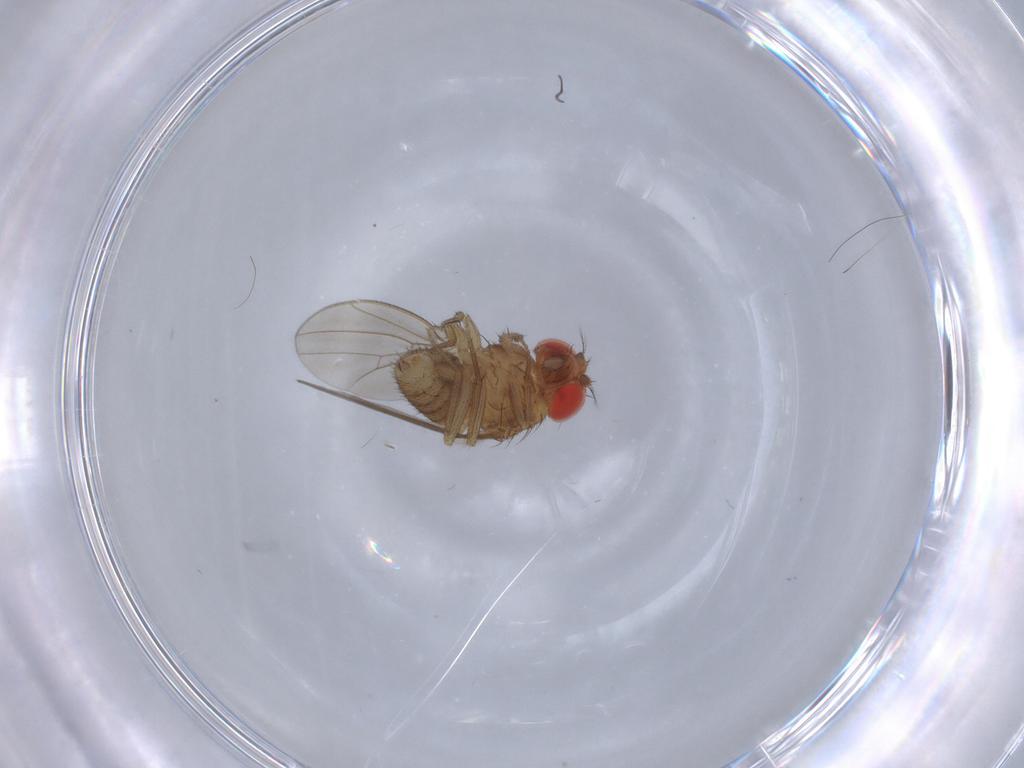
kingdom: Animalia
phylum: Arthropoda
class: Insecta
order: Diptera
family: Drosophilidae
